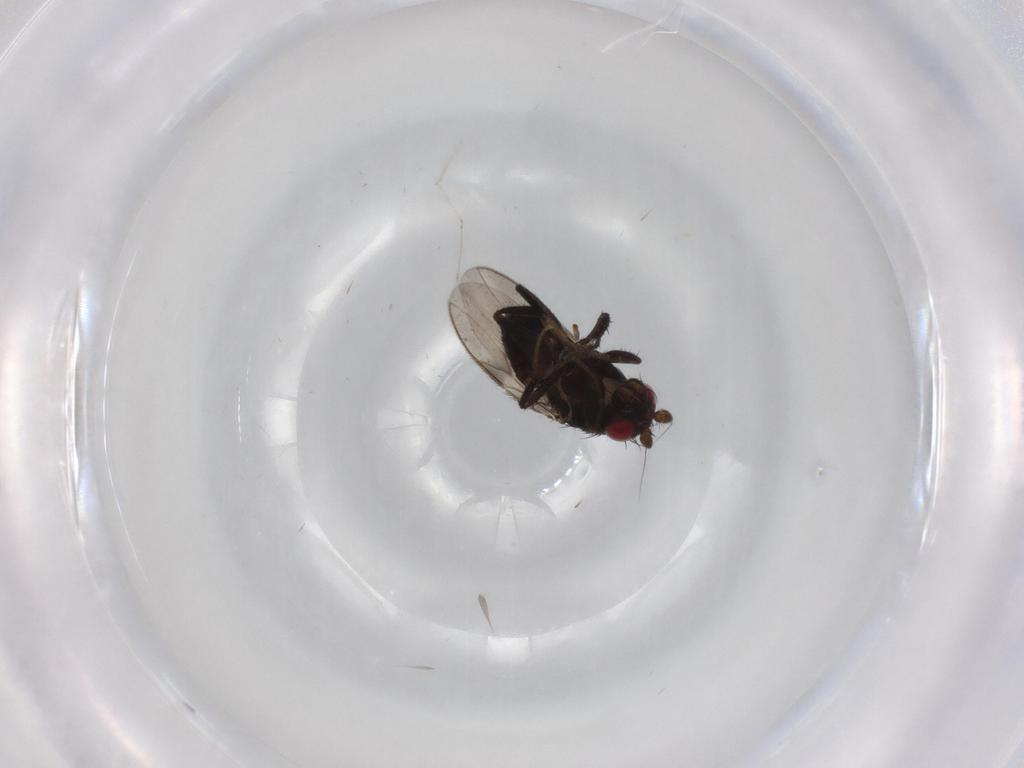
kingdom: Animalia
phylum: Arthropoda
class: Insecta
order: Diptera
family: Sphaeroceridae
